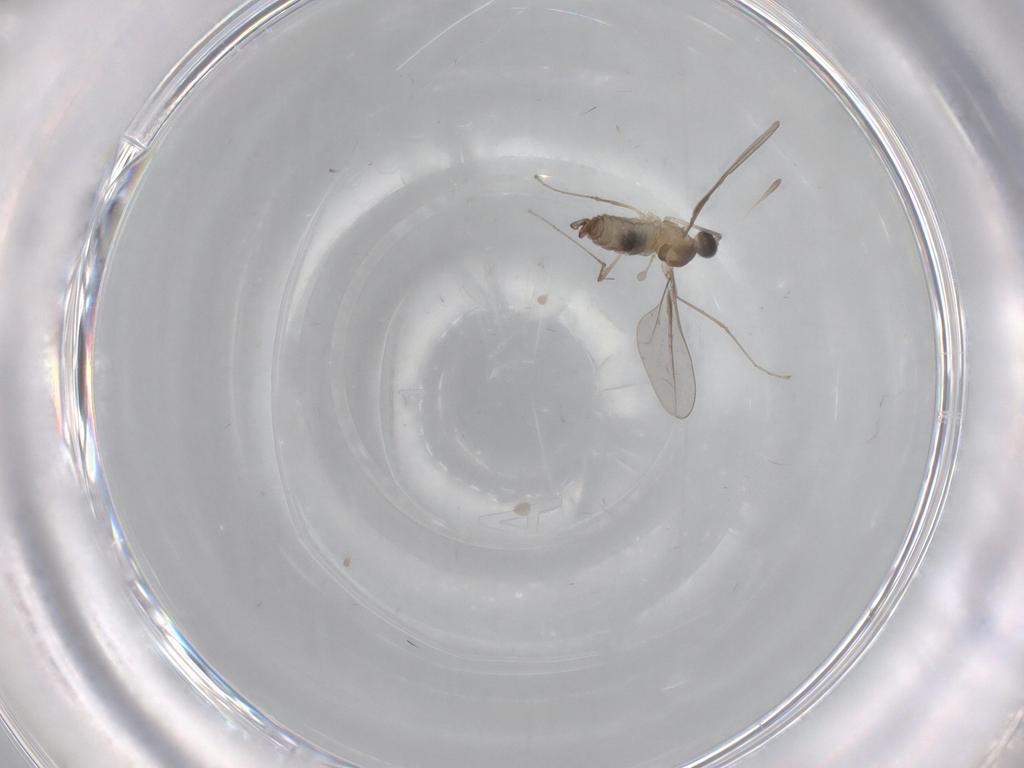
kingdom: Animalia
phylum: Arthropoda
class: Insecta
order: Diptera
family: Cecidomyiidae
